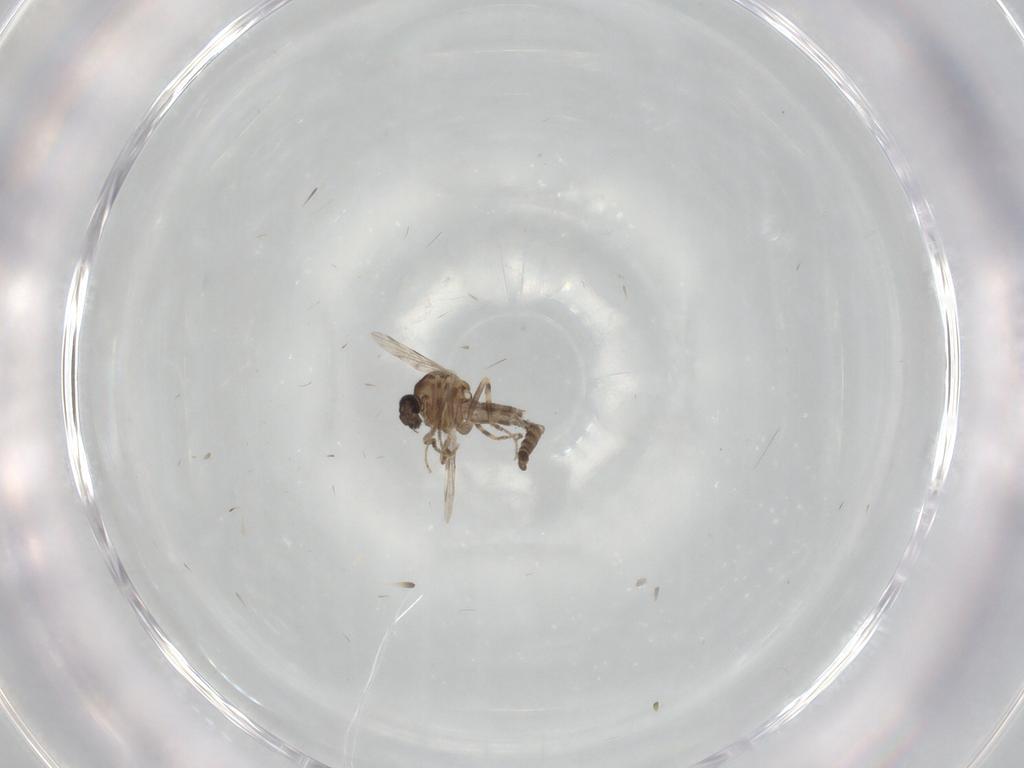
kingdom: Animalia
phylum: Arthropoda
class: Insecta
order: Diptera
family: Ceratopogonidae
